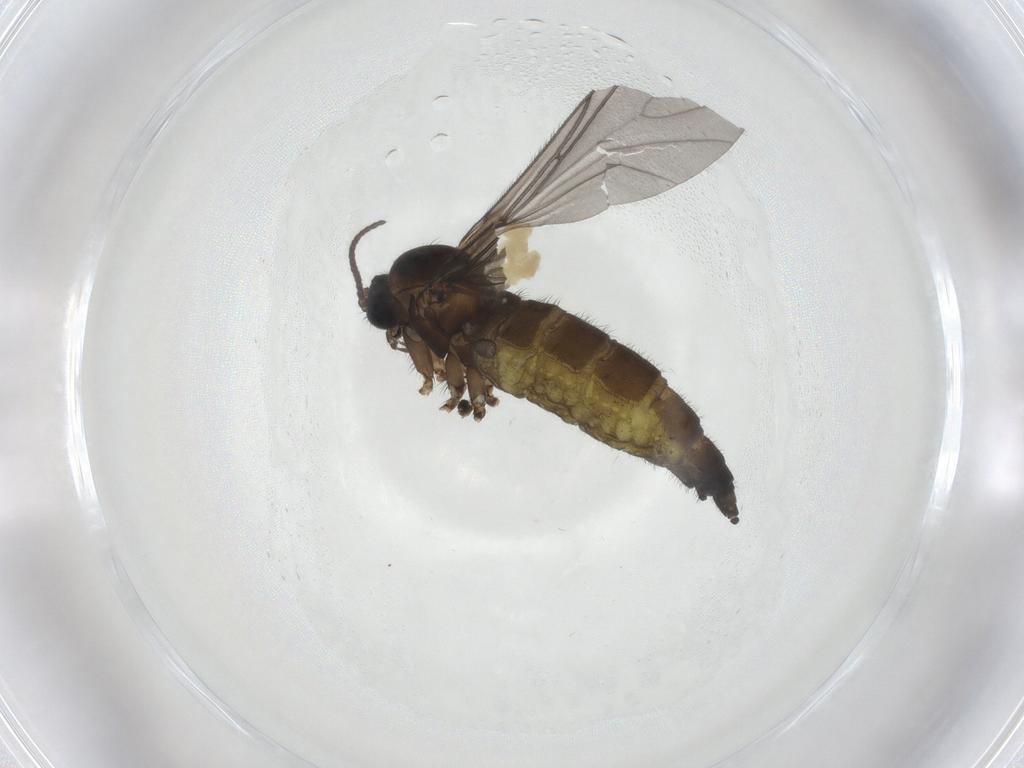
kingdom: Animalia
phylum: Arthropoda
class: Insecta
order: Diptera
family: Sciaridae
